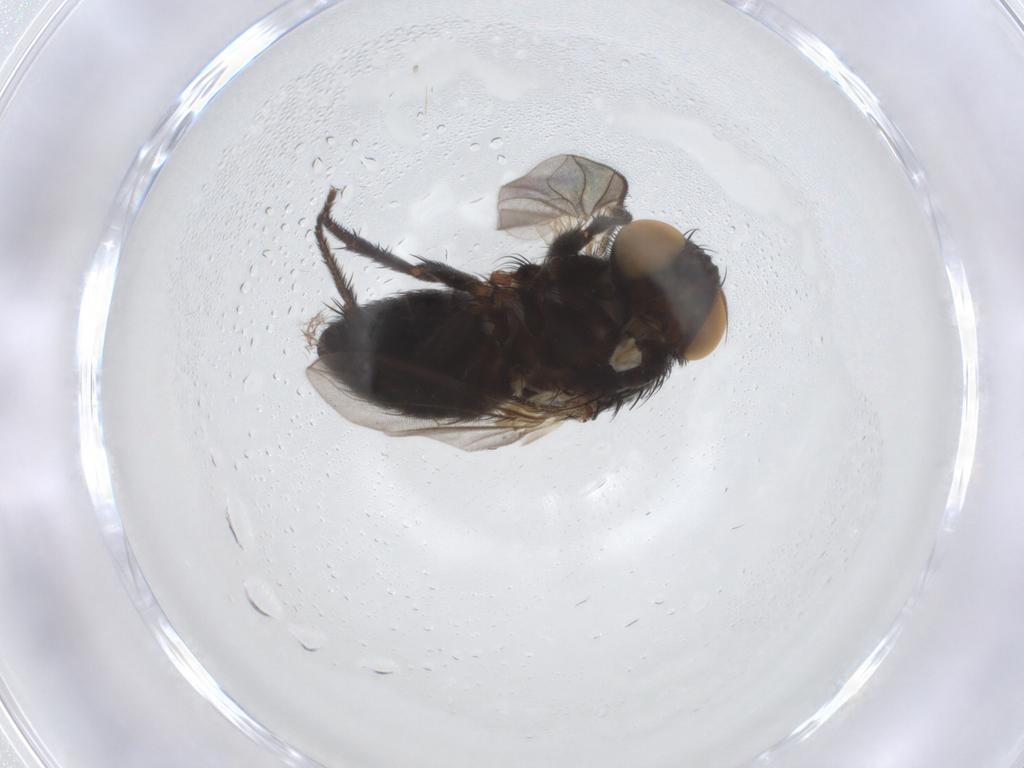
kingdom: Animalia
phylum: Arthropoda
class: Insecta
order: Diptera
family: Tachinidae
